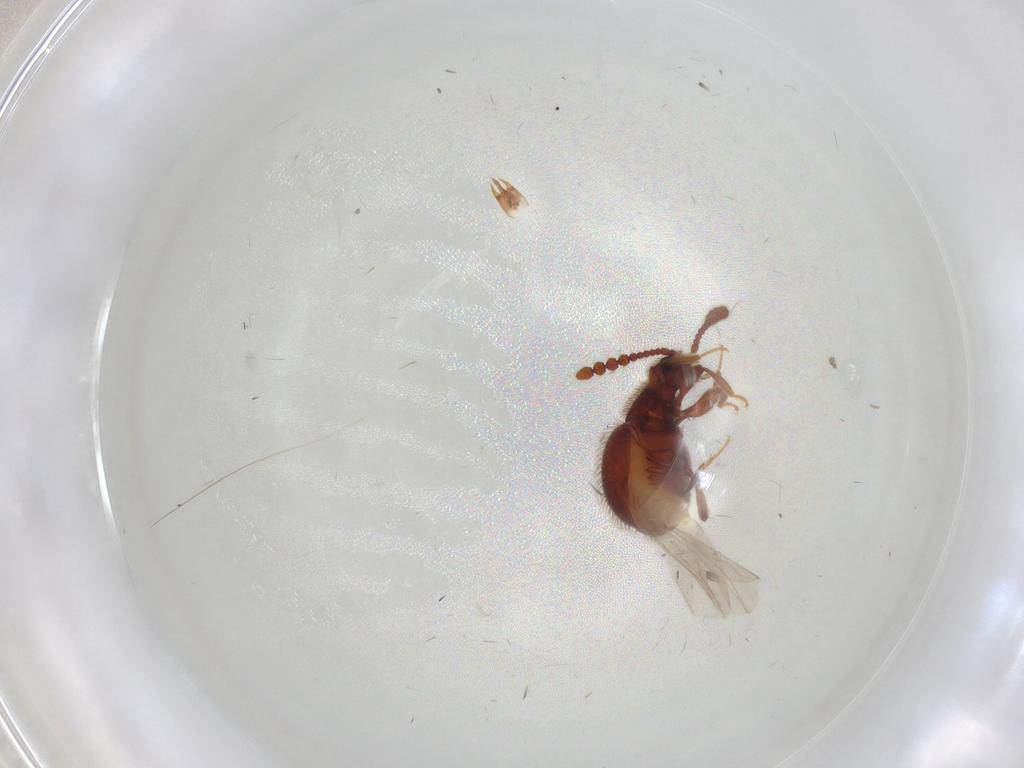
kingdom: Animalia
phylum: Arthropoda
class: Insecta
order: Coleoptera
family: Staphylinidae
